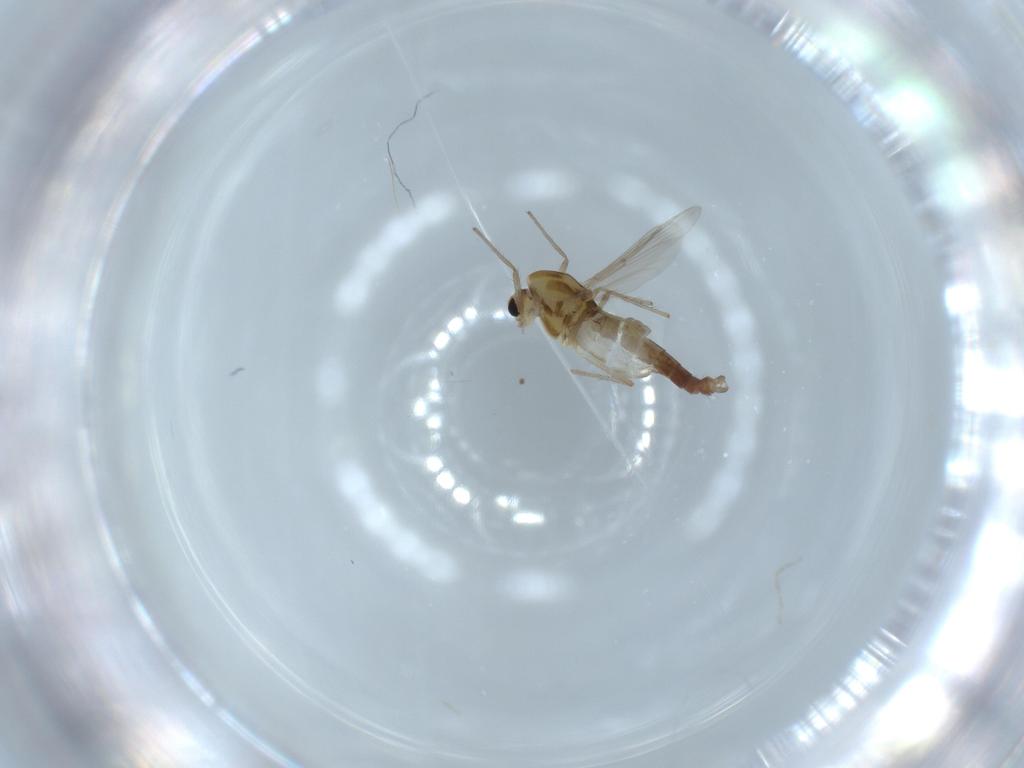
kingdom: Animalia
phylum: Arthropoda
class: Insecta
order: Diptera
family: Chironomidae
